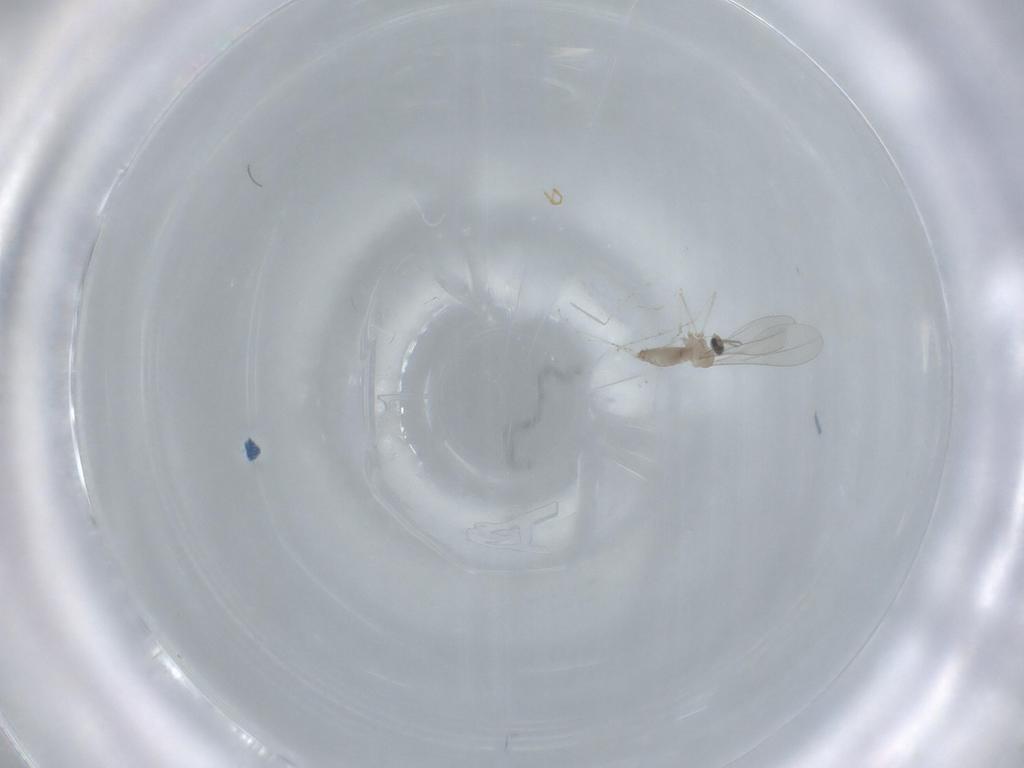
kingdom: Animalia
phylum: Arthropoda
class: Insecta
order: Diptera
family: Cecidomyiidae
